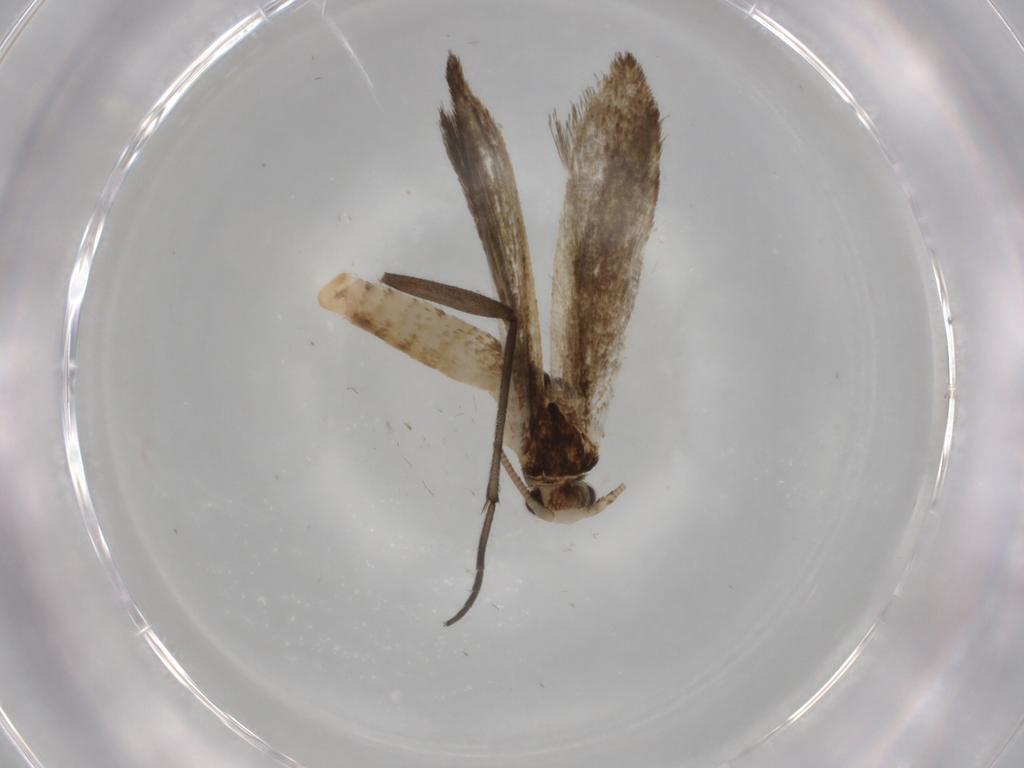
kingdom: Animalia
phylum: Arthropoda
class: Insecta
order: Lepidoptera
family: Eriocottidae
